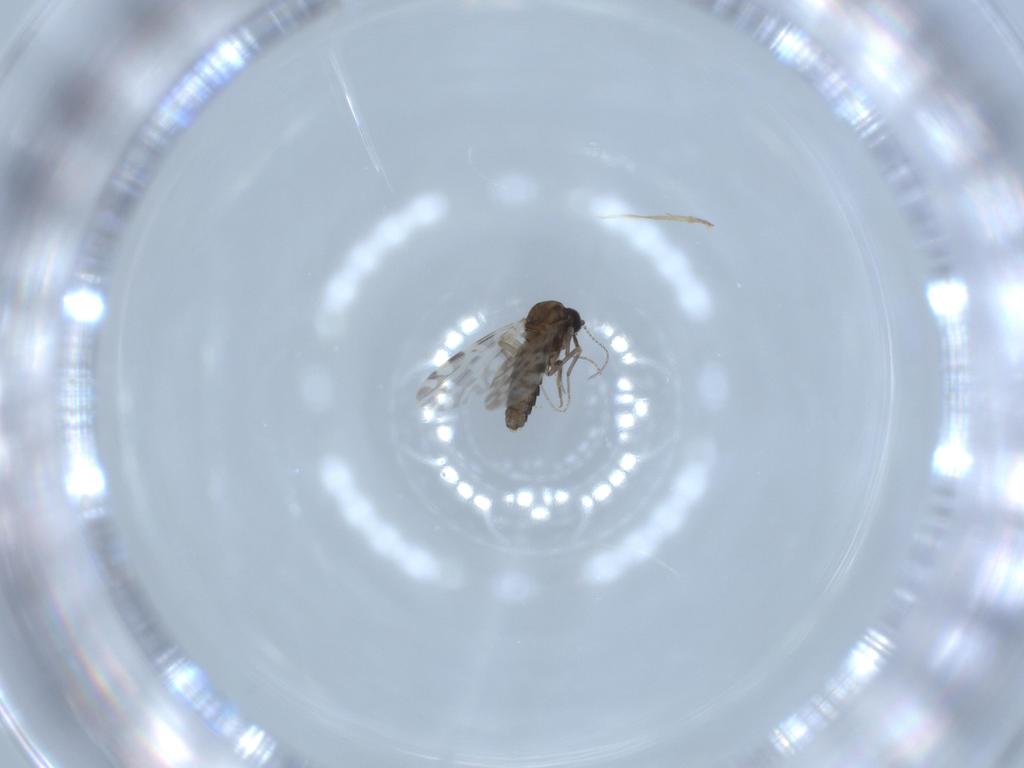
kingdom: Animalia
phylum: Arthropoda
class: Insecta
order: Diptera
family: Ceratopogonidae
